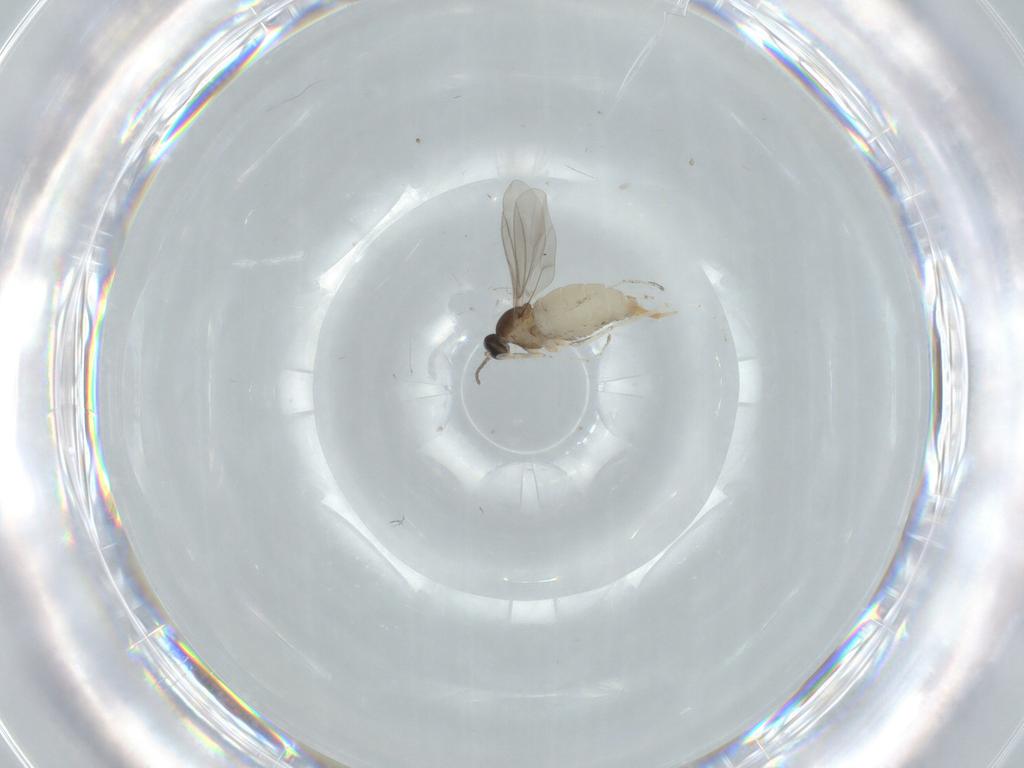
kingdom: Animalia
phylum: Arthropoda
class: Insecta
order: Diptera
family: Cecidomyiidae
